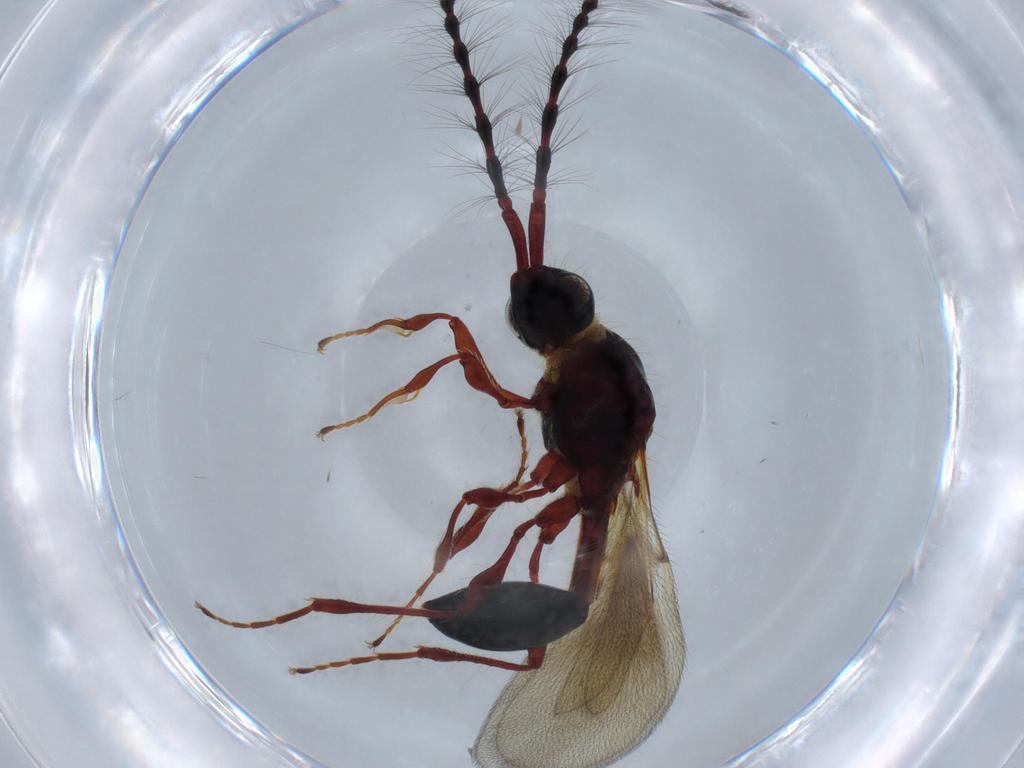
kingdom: Animalia
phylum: Arthropoda
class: Insecta
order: Hymenoptera
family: Diapriidae
